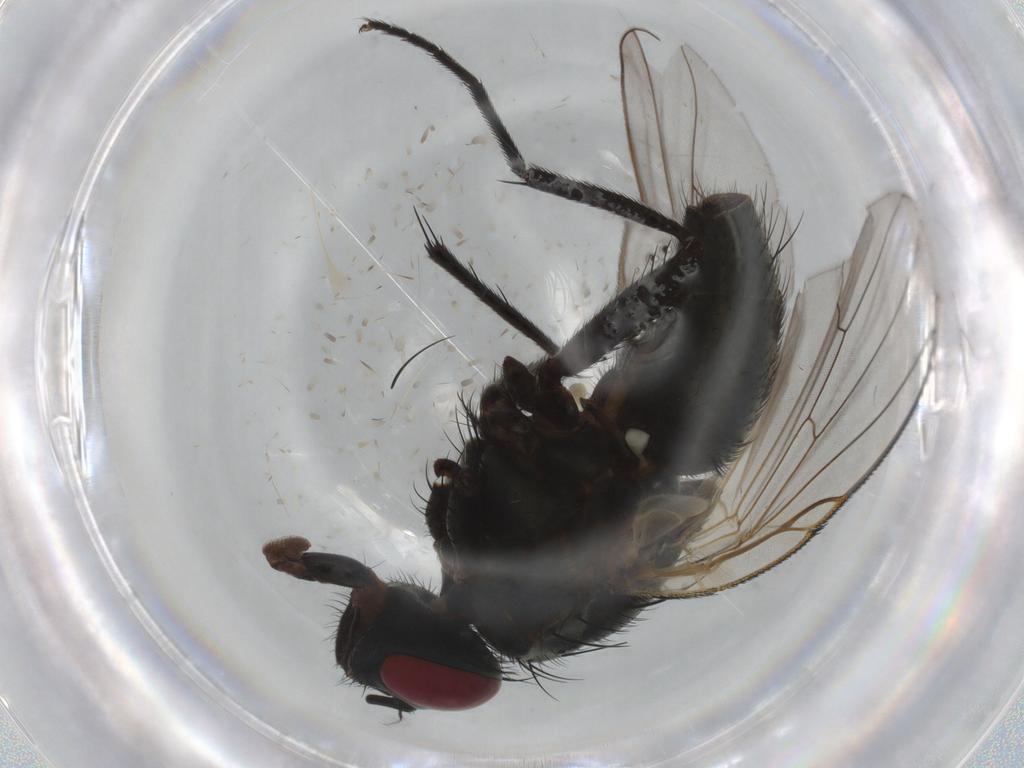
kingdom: Animalia
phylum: Arthropoda
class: Insecta
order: Diptera
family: Muscidae
